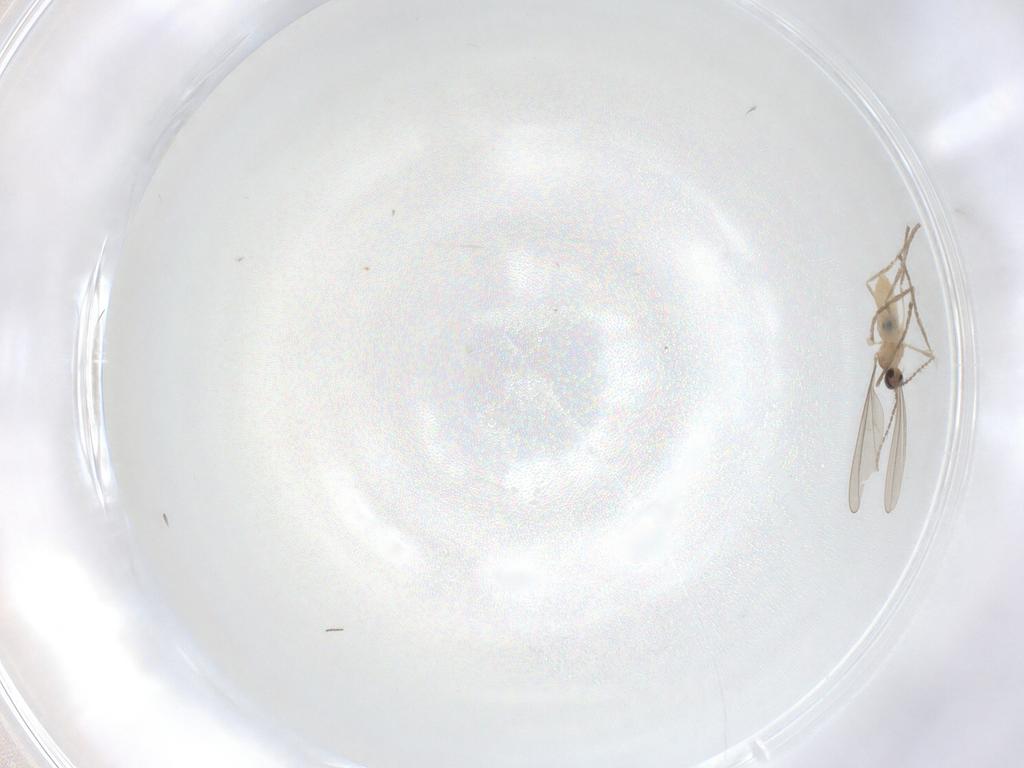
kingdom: Animalia
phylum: Arthropoda
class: Insecta
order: Diptera
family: Cecidomyiidae
